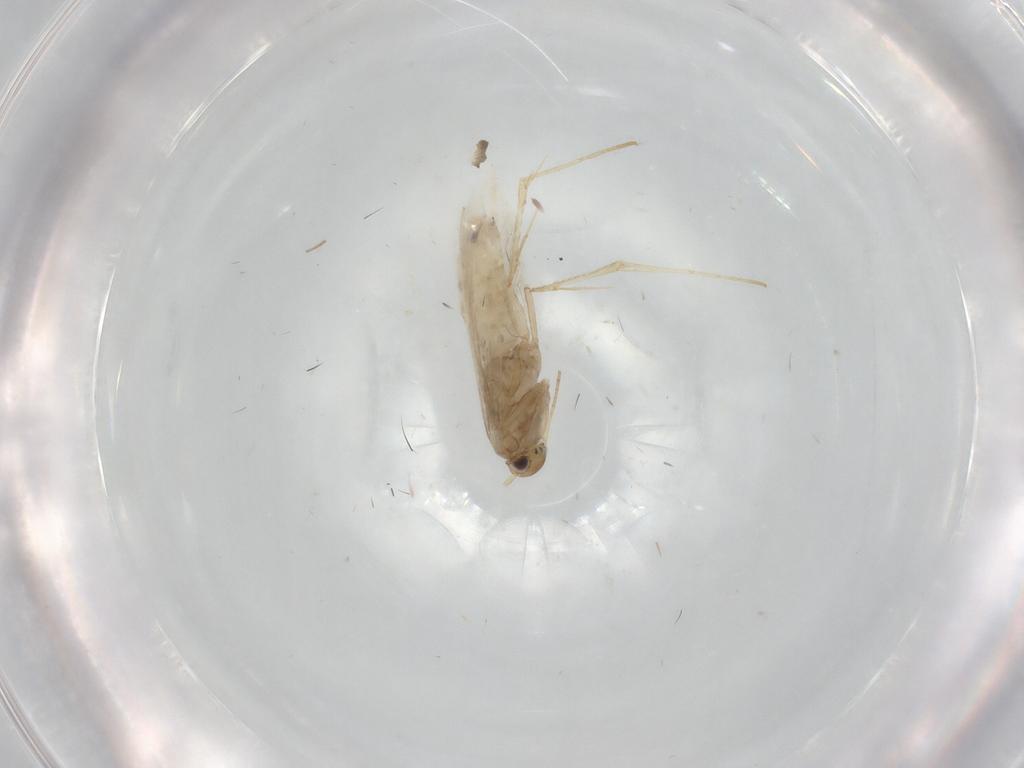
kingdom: Animalia
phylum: Arthropoda
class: Insecta
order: Lepidoptera
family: Gracillariidae
